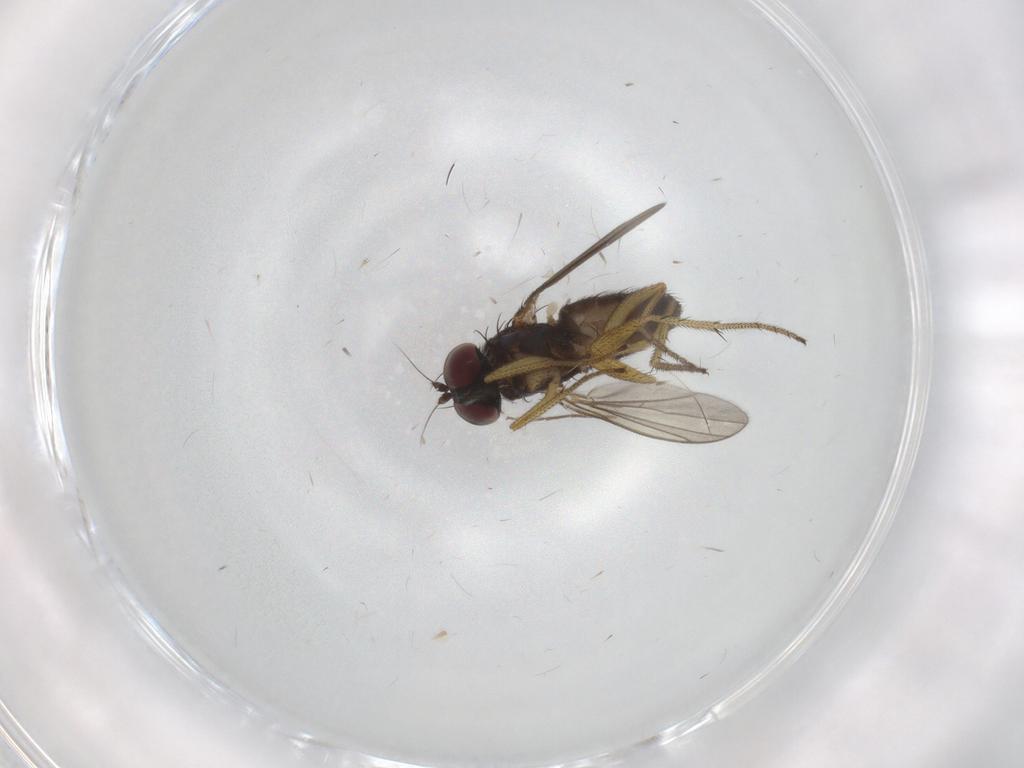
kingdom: Animalia
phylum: Arthropoda
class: Insecta
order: Diptera
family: Dolichopodidae
